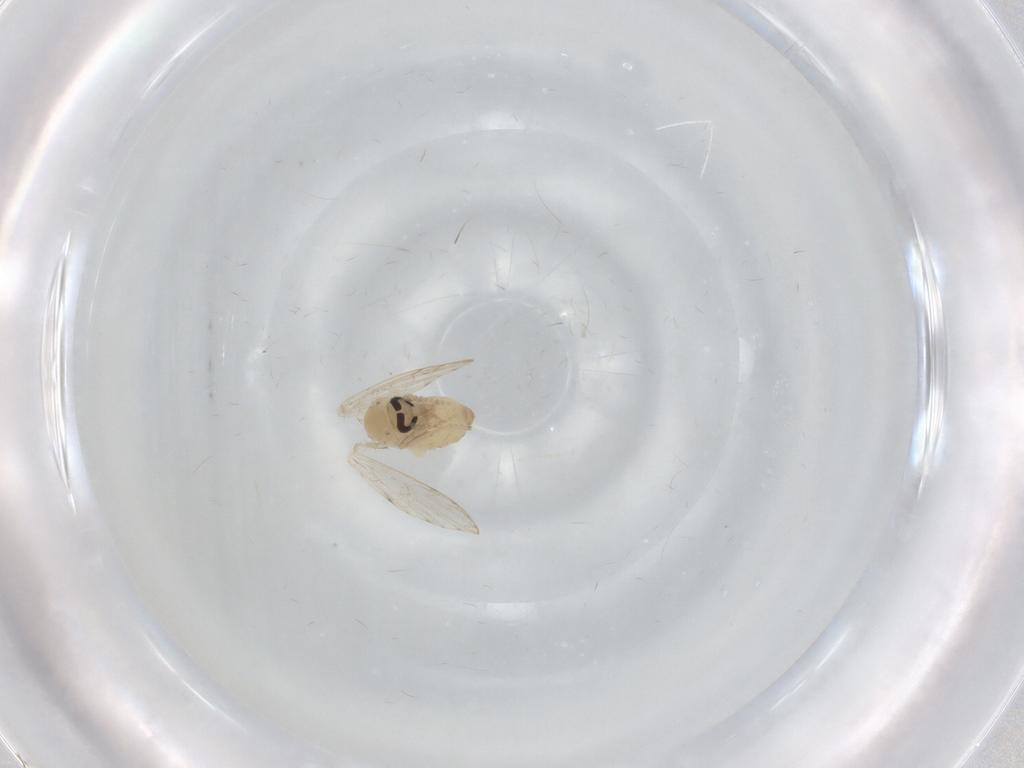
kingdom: Animalia
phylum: Arthropoda
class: Insecta
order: Diptera
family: Psychodidae
